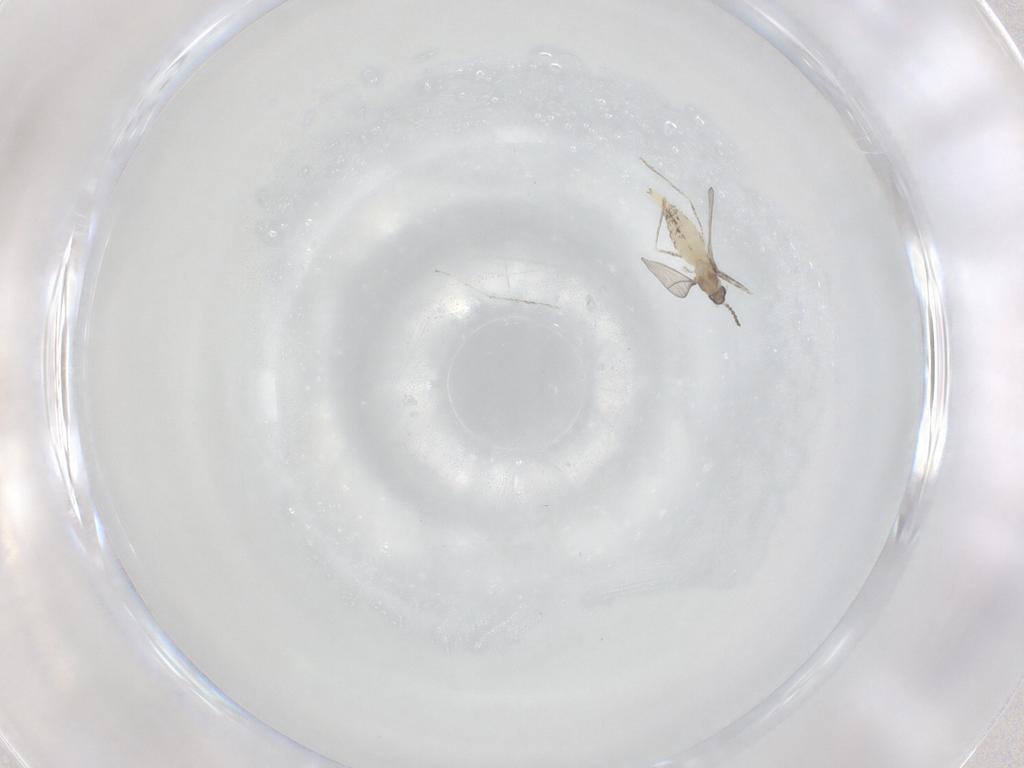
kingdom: Animalia
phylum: Arthropoda
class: Insecta
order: Diptera
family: Cecidomyiidae
